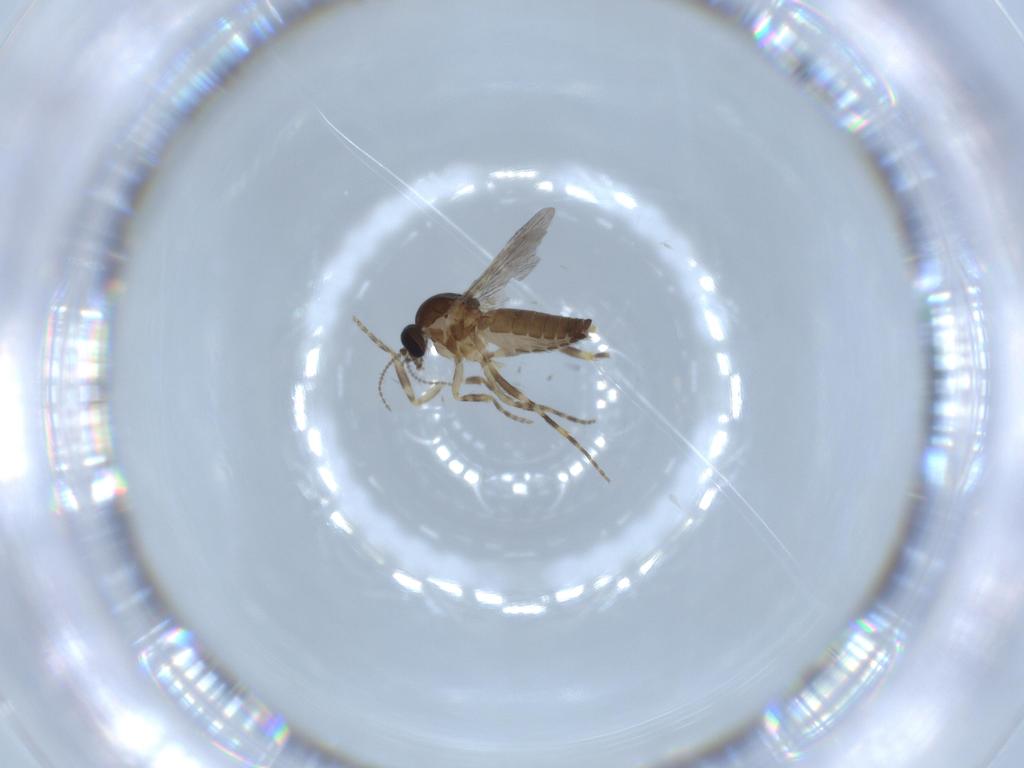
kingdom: Animalia
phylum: Arthropoda
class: Insecta
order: Diptera
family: Ceratopogonidae
